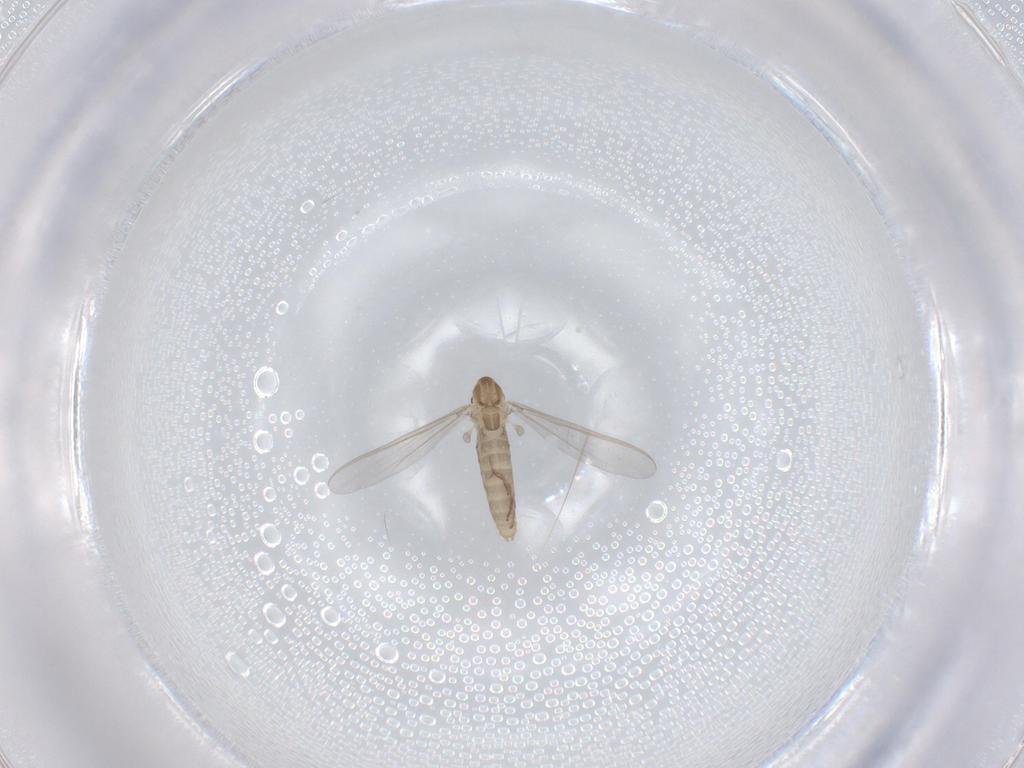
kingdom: Animalia
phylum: Arthropoda
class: Insecta
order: Diptera
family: Chironomidae
